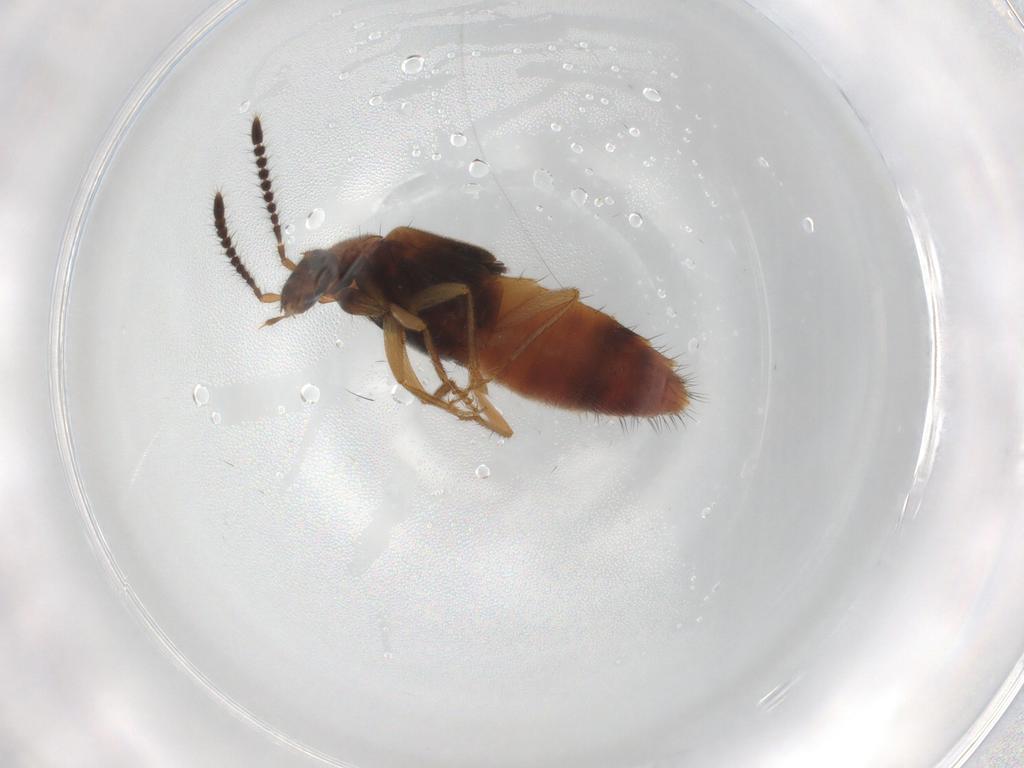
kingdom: Animalia
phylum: Arthropoda
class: Insecta
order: Coleoptera
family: Staphylinidae
